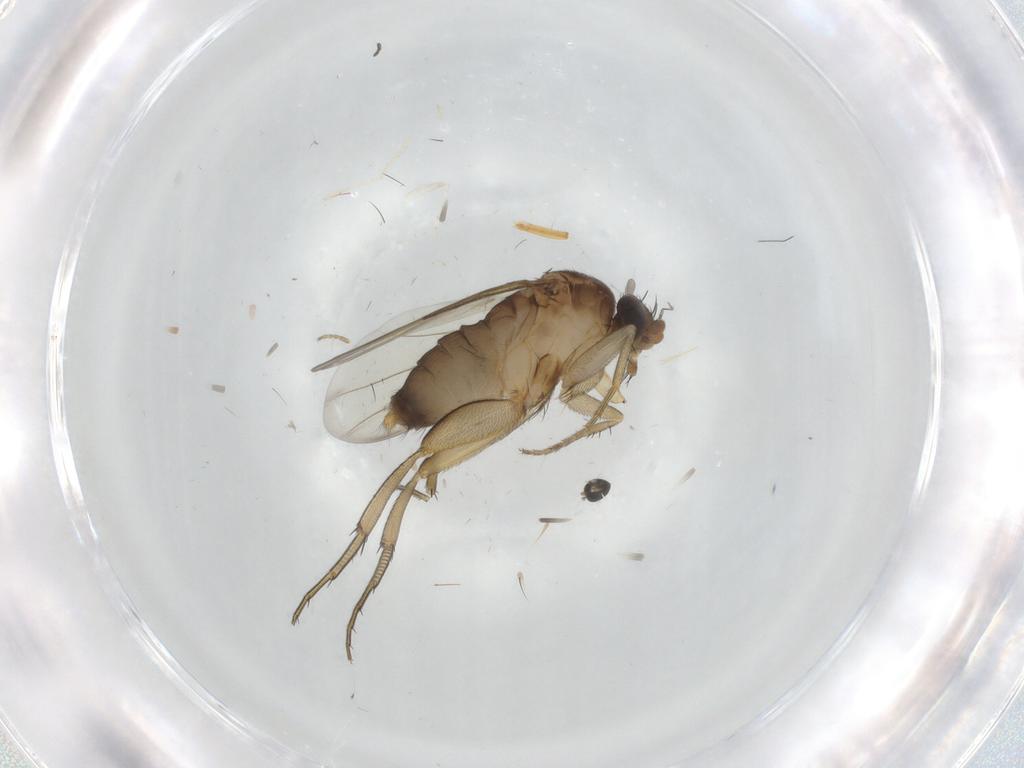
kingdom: Animalia
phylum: Arthropoda
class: Insecta
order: Diptera
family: Phoridae
